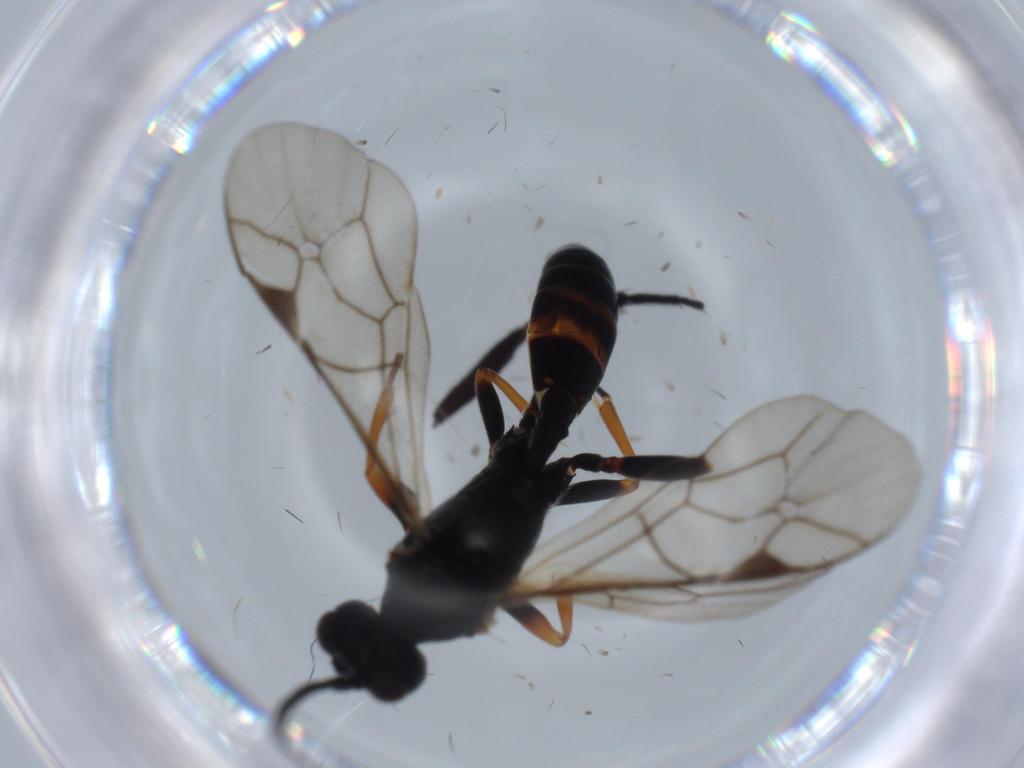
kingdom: Animalia
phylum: Arthropoda
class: Insecta
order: Hymenoptera
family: Ichneumonidae
